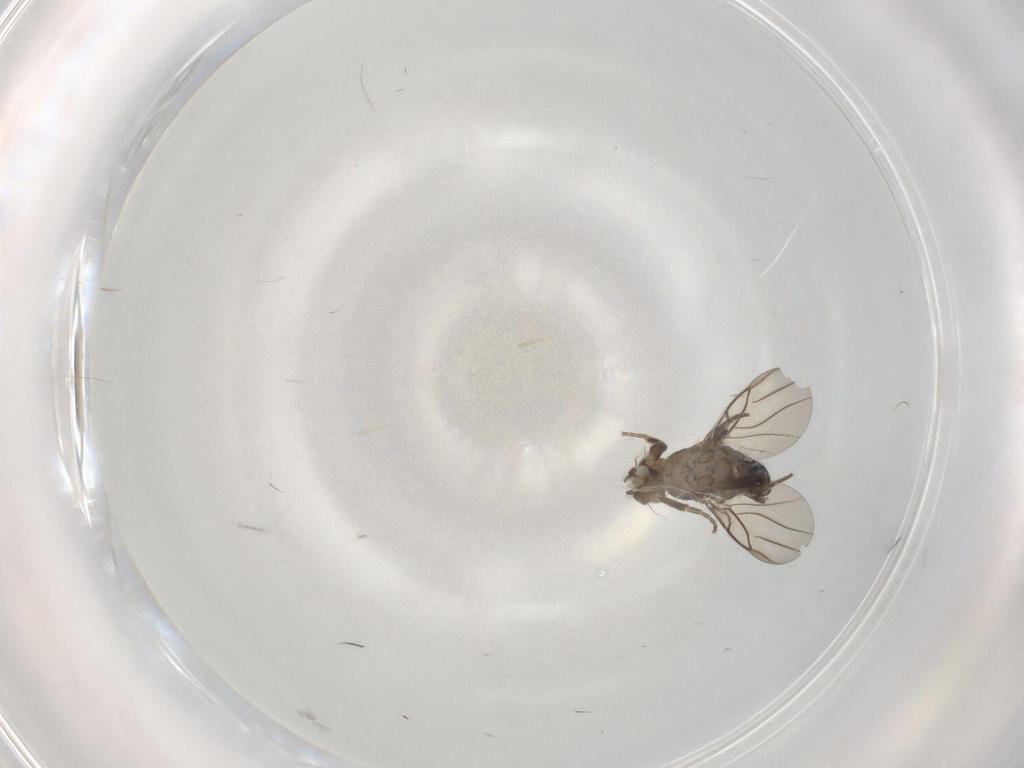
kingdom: Animalia
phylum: Arthropoda
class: Insecta
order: Diptera
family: Phoridae
